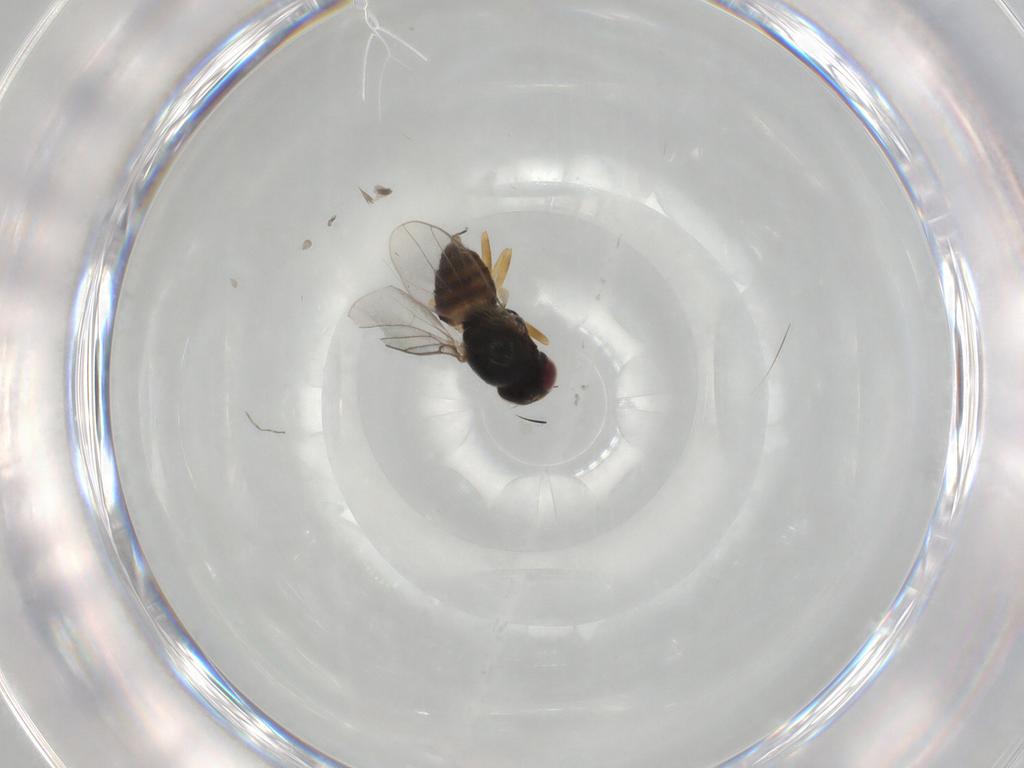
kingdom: Animalia
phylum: Arthropoda
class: Insecta
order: Diptera
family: Chloropidae
